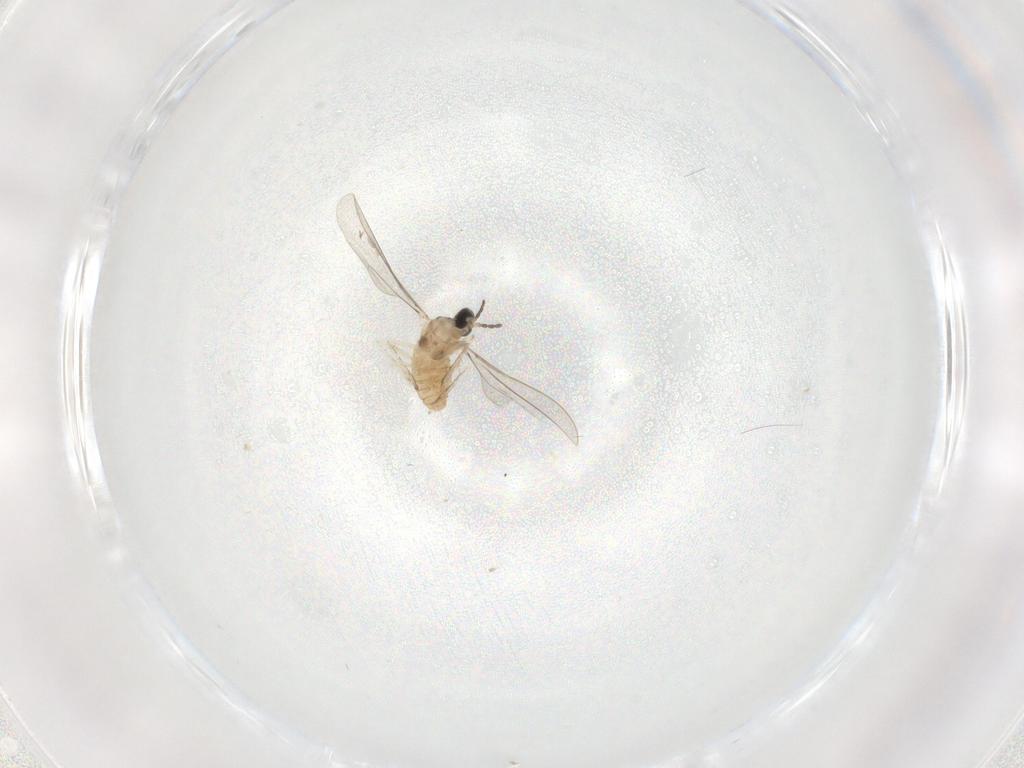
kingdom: Animalia
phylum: Arthropoda
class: Insecta
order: Diptera
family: Cecidomyiidae
